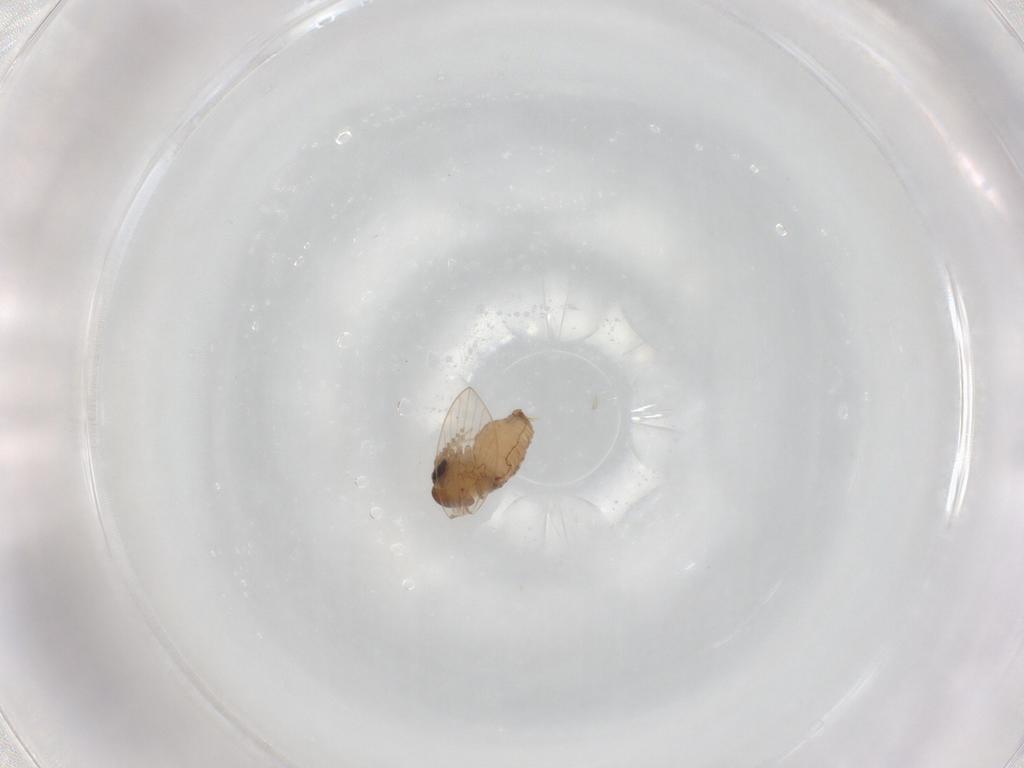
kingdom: Animalia
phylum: Arthropoda
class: Insecta
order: Diptera
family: Psychodidae
